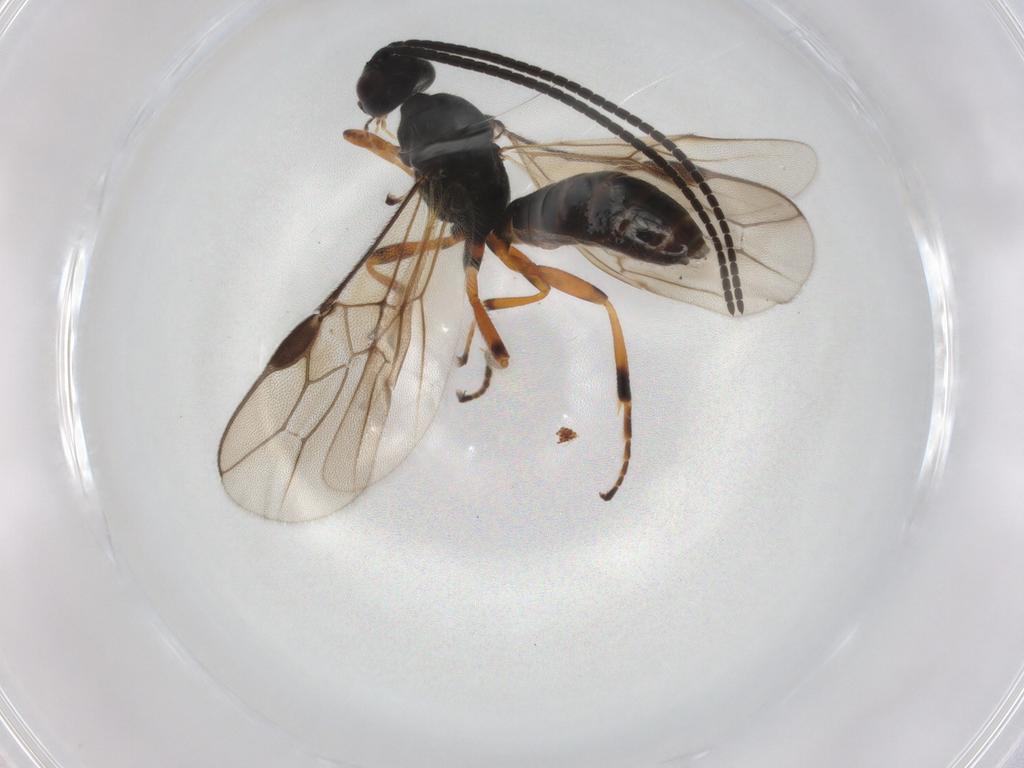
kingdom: Animalia
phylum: Arthropoda
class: Insecta
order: Hymenoptera
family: Braconidae
